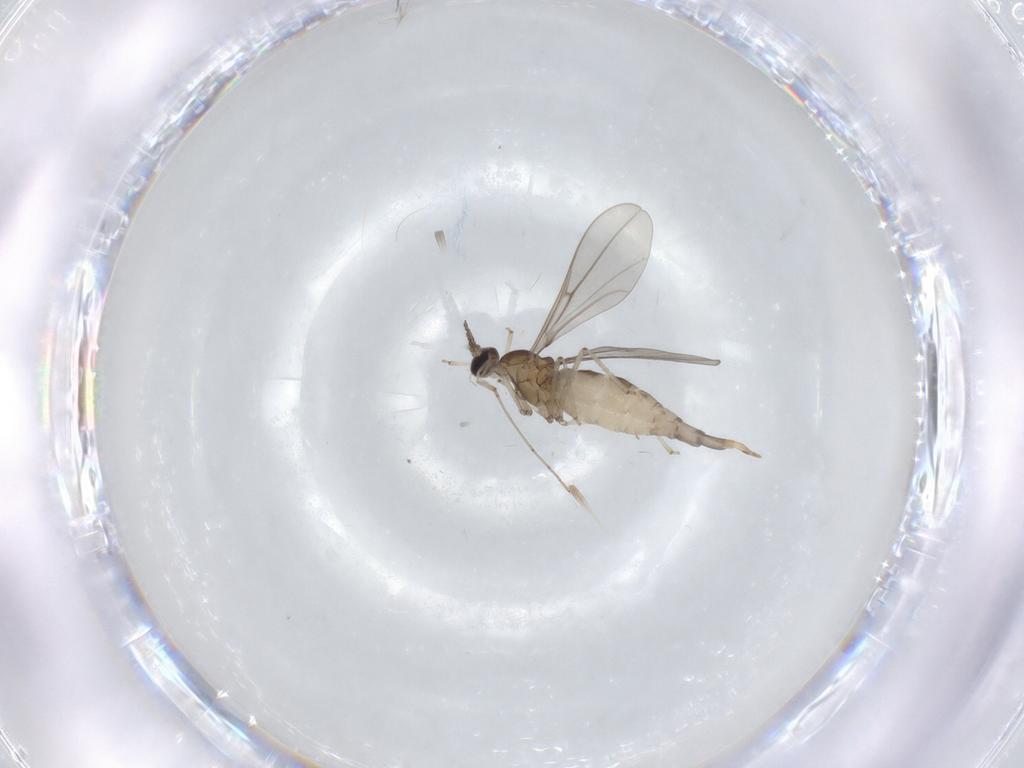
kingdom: Animalia
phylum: Arthropoda
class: Insecta
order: Diptera
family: Cecidomyiidae
